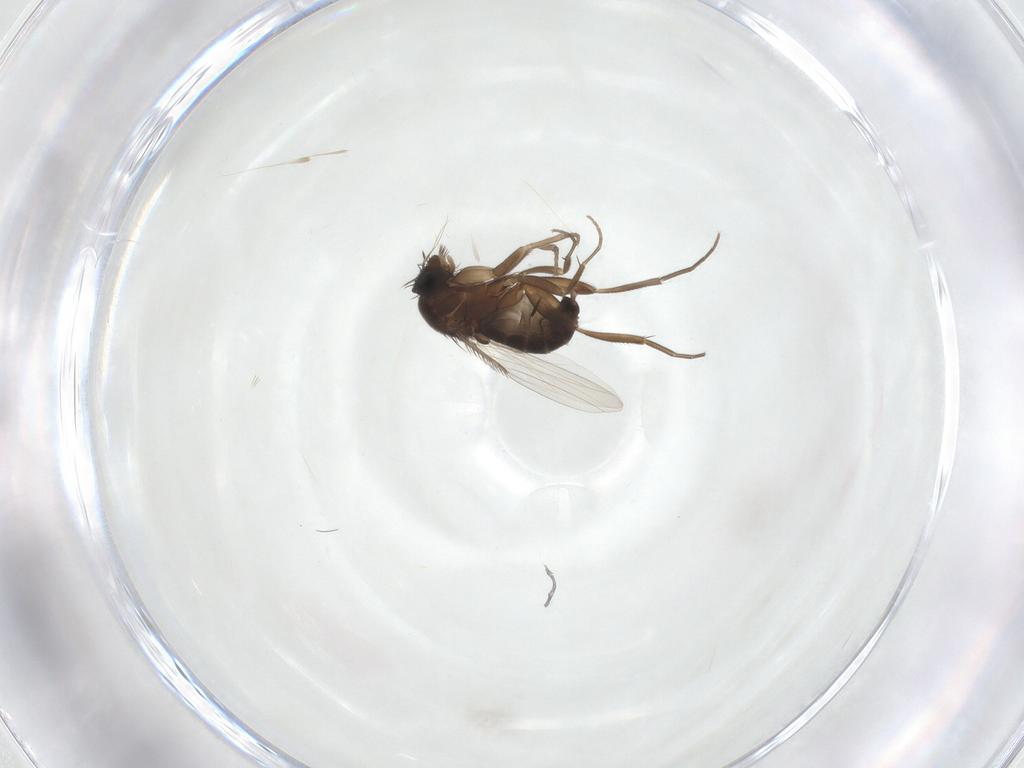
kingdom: Animalia
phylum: Arthropoda
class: Insecta
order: Diptera
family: Phoridae
